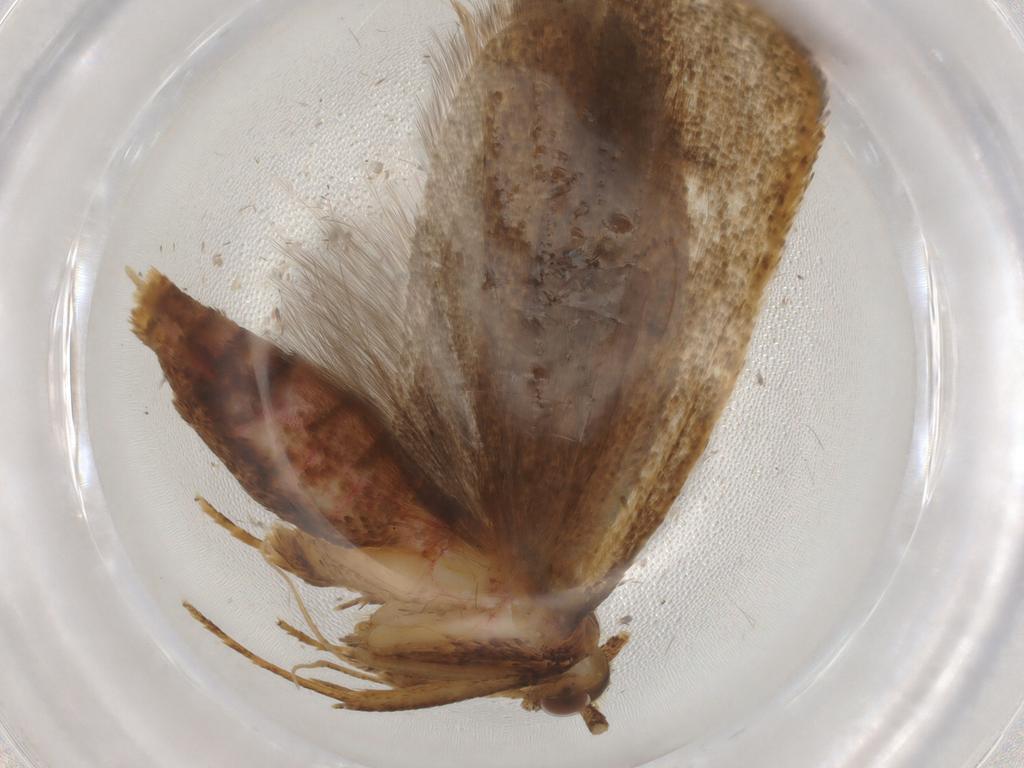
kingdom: Animalia
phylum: Arthropoda
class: Insecta
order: Lepidoptera
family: Lecithoceridae
